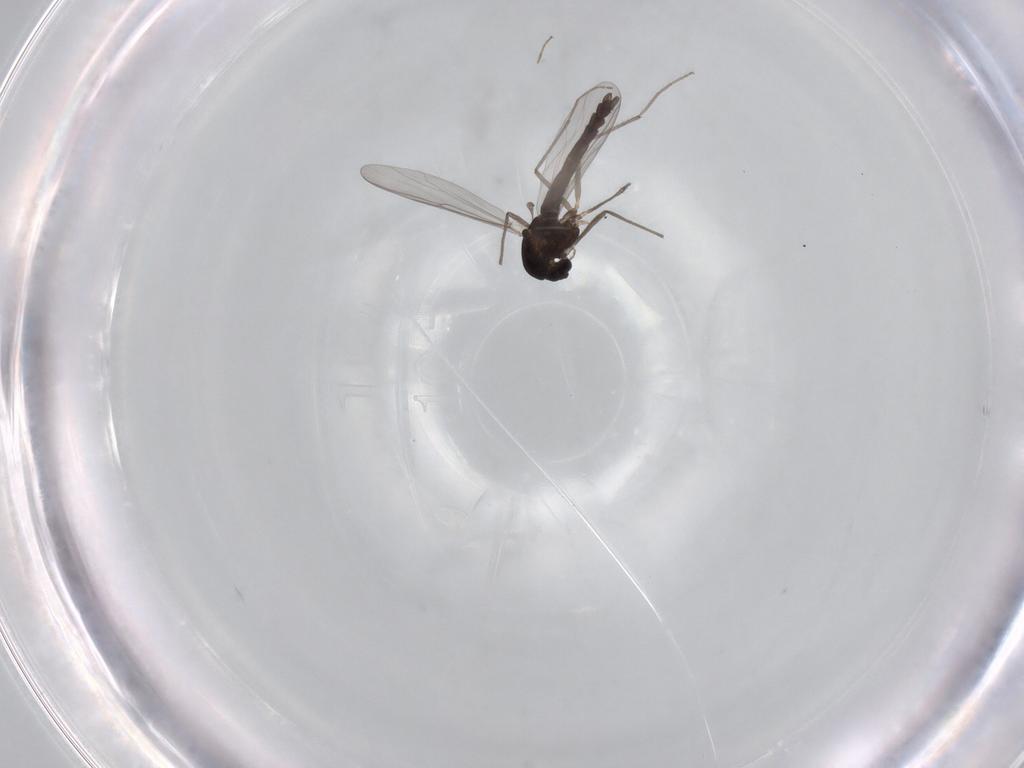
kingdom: Animalia
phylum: Arthropoda
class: Insecta
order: Diptera
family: Chironomidae
